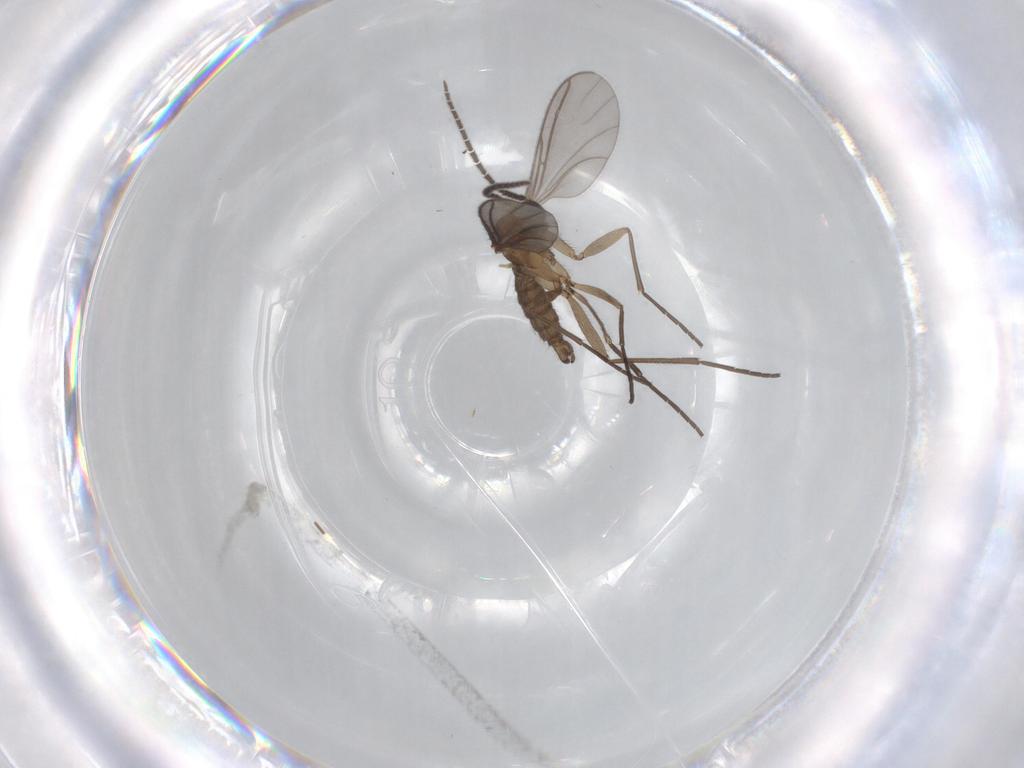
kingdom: Animalia
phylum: Arthropoda
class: Insecta
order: Diptera
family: Sciaridae
